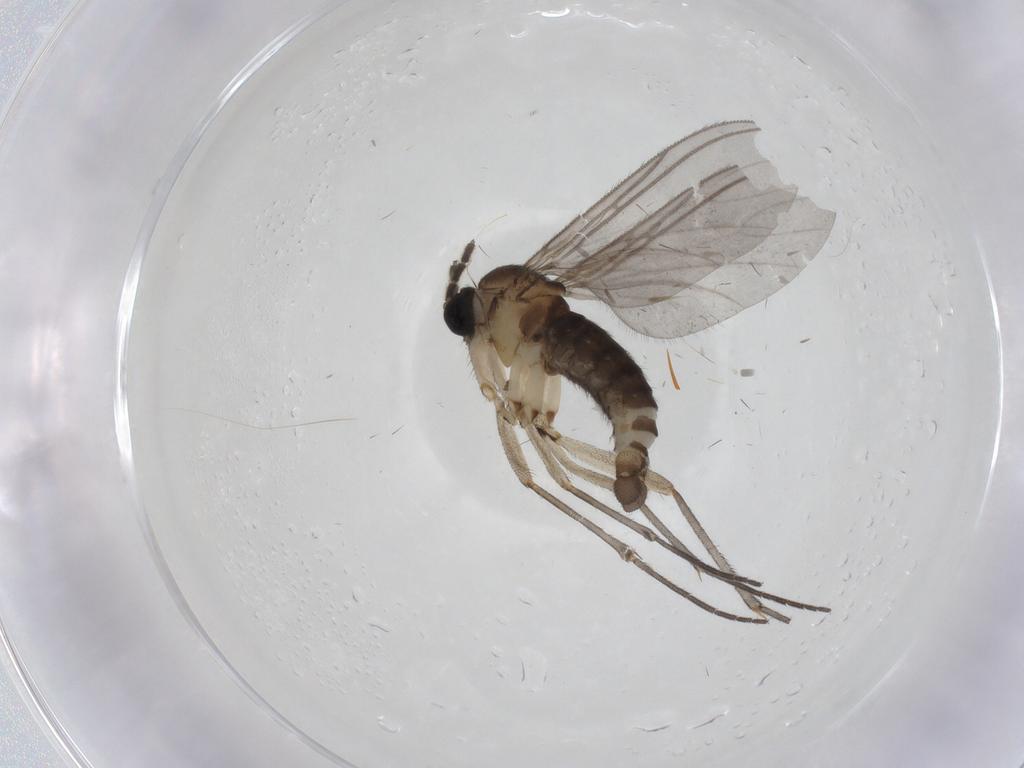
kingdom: Animalia
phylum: Arthropoda
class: Insecta
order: Diptera
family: Sciaridae
